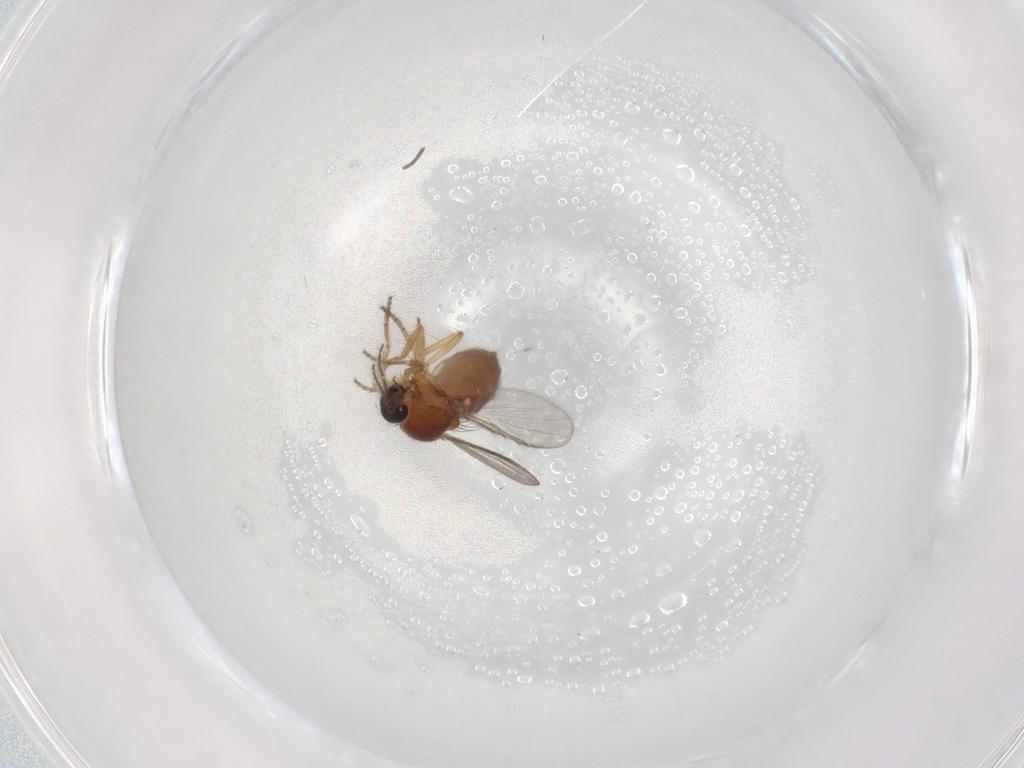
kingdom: Animalia
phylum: Arthropoda
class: Insecta
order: Diptera
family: Ceratopogonidae
